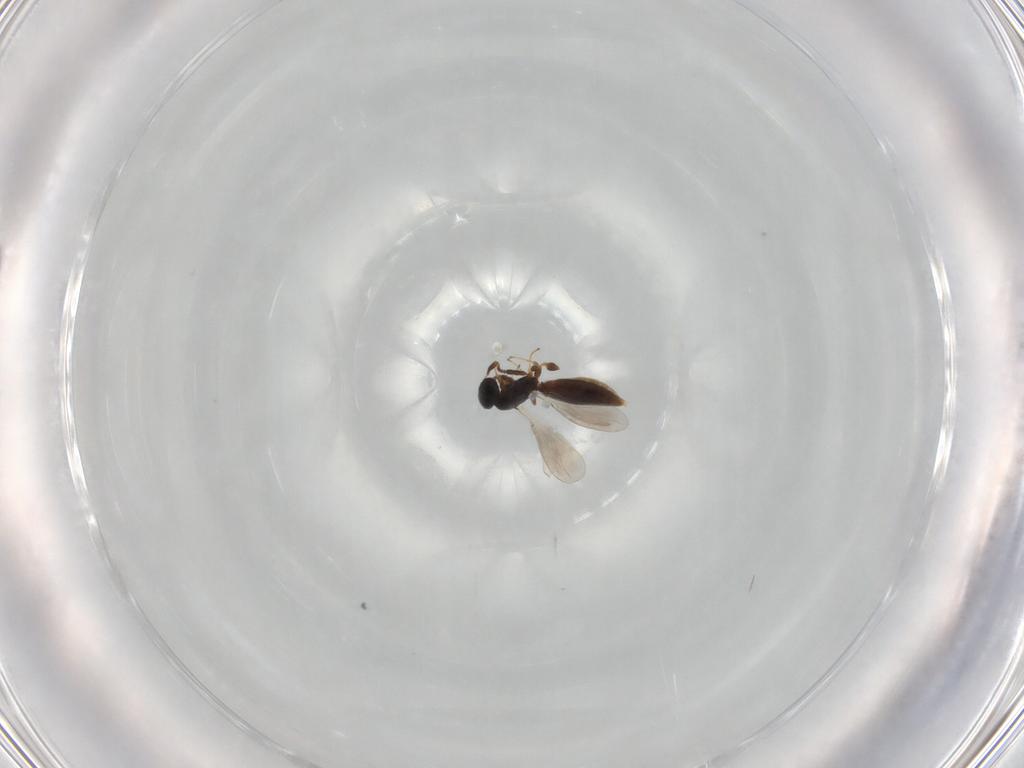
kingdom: Animalia
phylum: Arthropoda
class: Insecta
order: Hymenoptera
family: Platygastridae
